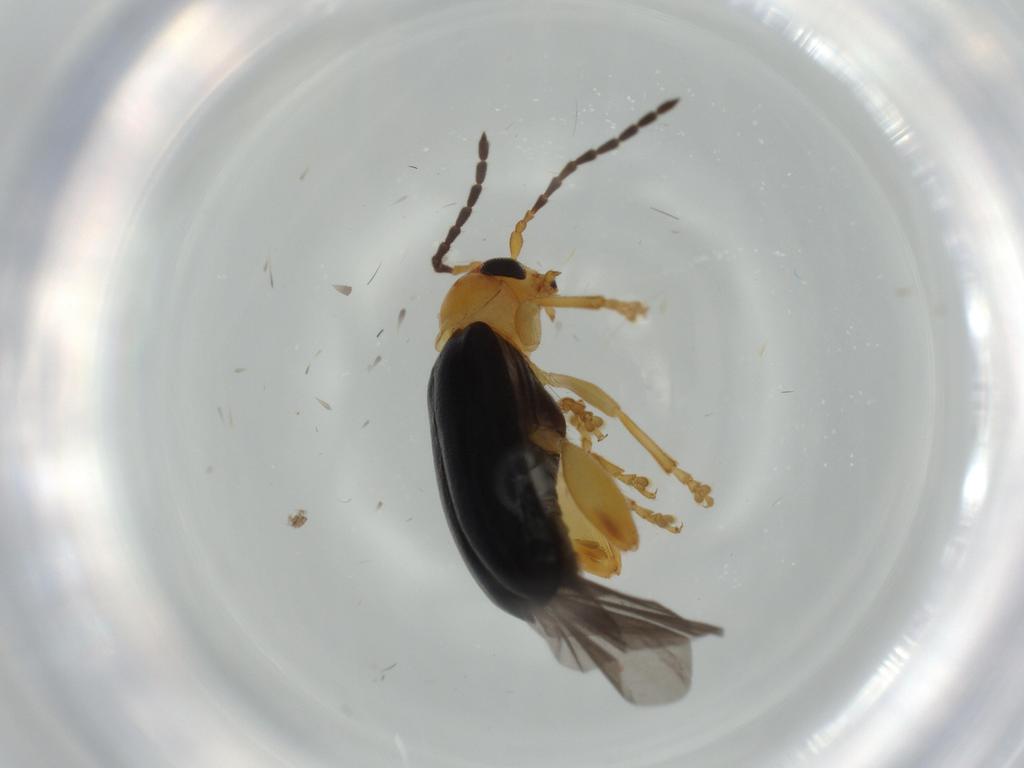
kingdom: Animalia
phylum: Arthropoda
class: Insecta
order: Coleoptera
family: Chrysomelidae
